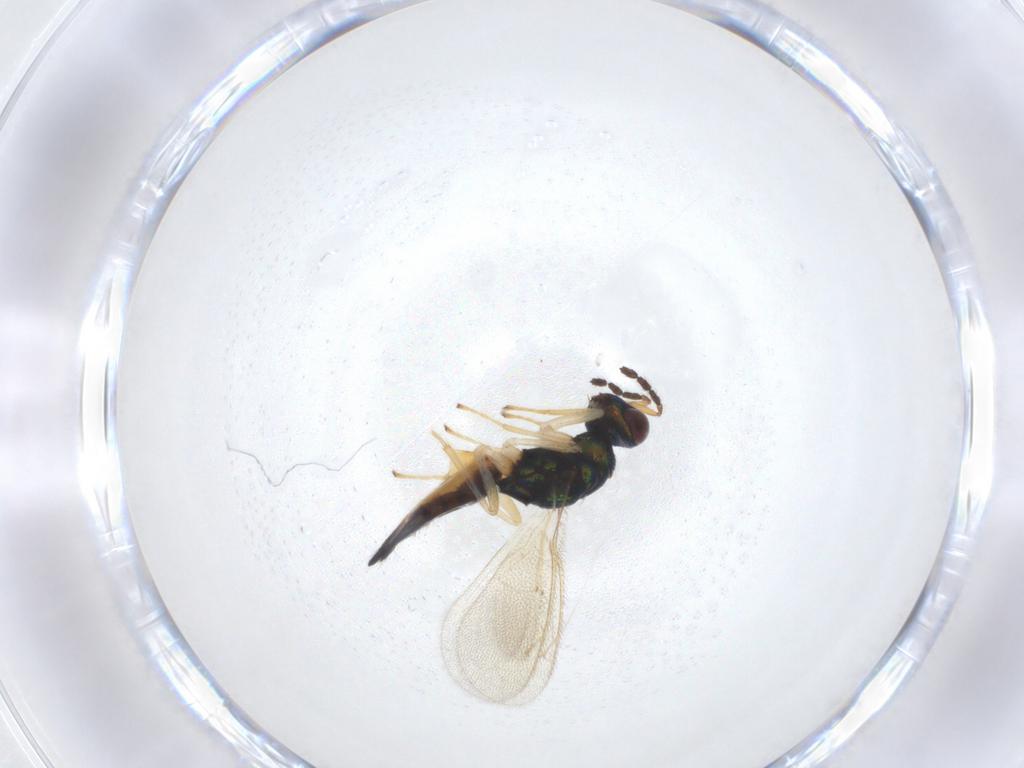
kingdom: Animalia
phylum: Arthropoda
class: Insecta
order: Hymenoptera
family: Eulophidae
